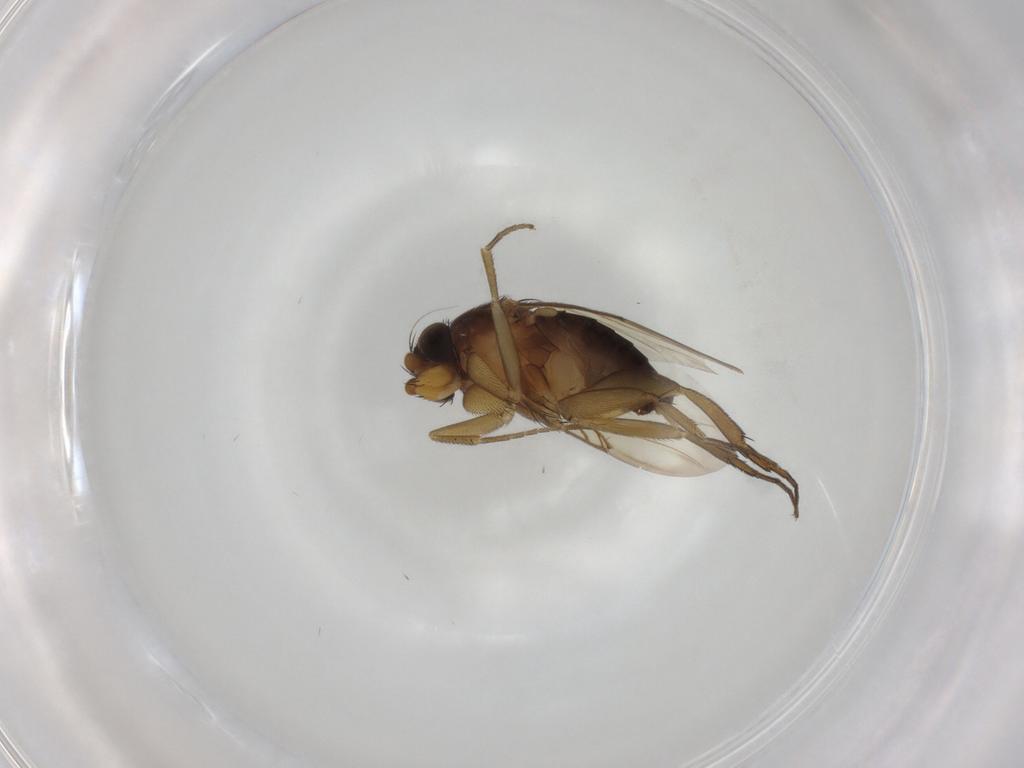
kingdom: Animalia
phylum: Arthropoda
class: Insecta
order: Diptera
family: Phoridae
